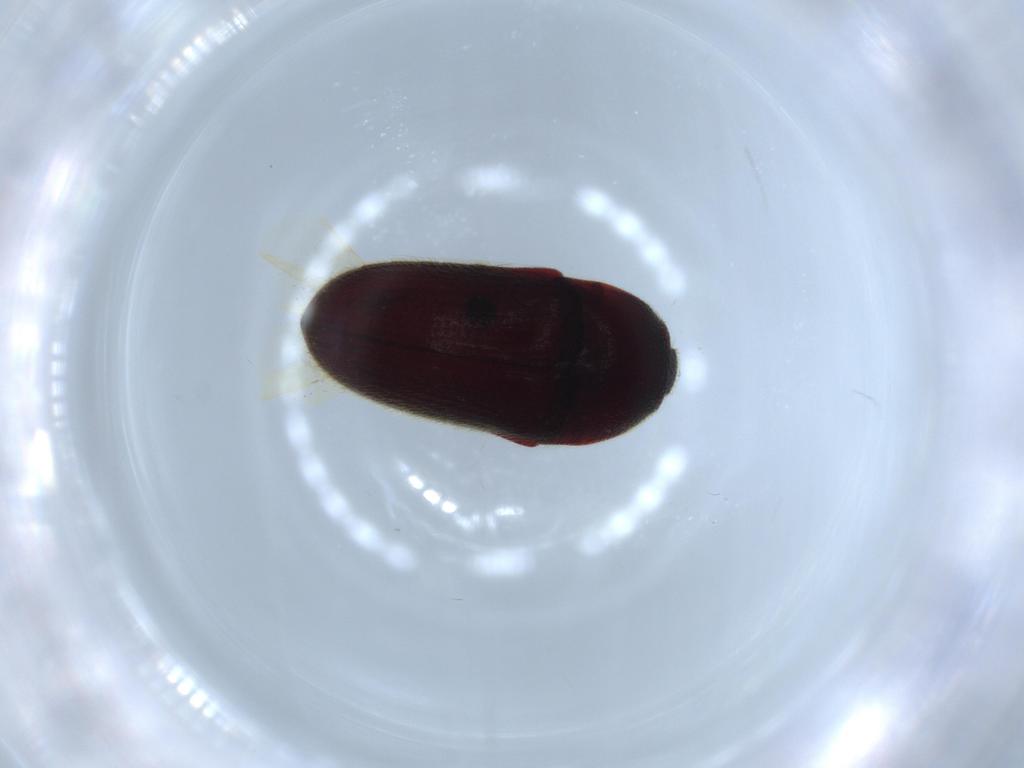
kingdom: Animalia
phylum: Arthropoda
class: Insecta
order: Coleoptera
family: Throscidae
